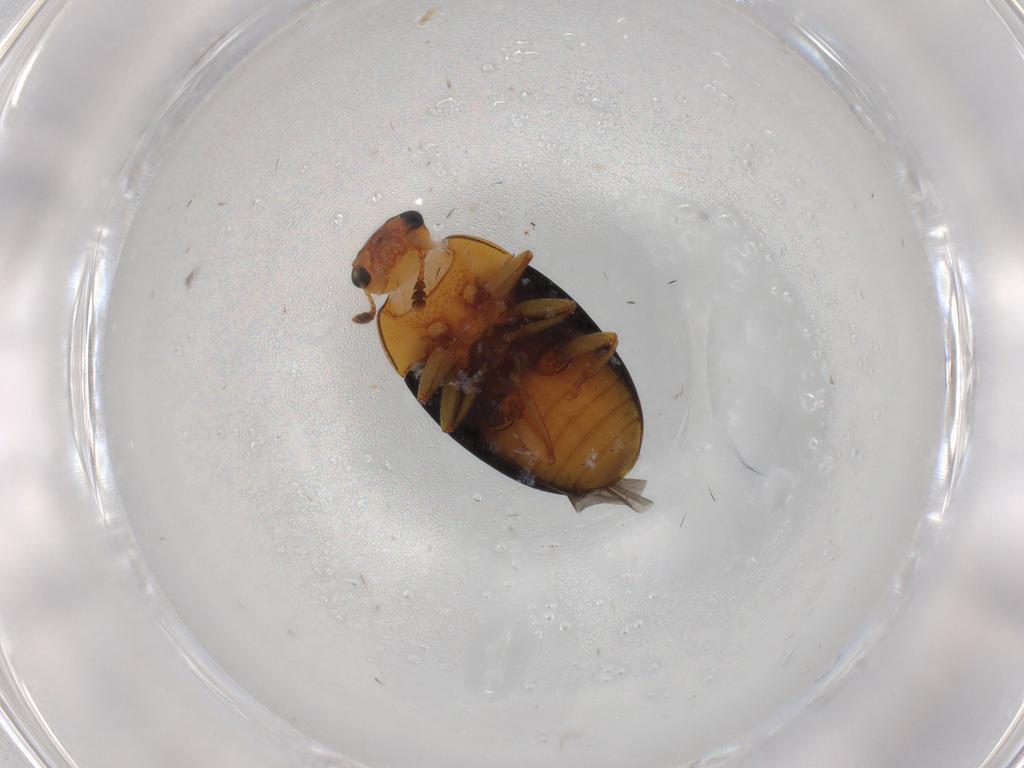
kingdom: Animalia
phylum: Arthropoda
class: Insecta
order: Coleoptera
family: Erotylidae
